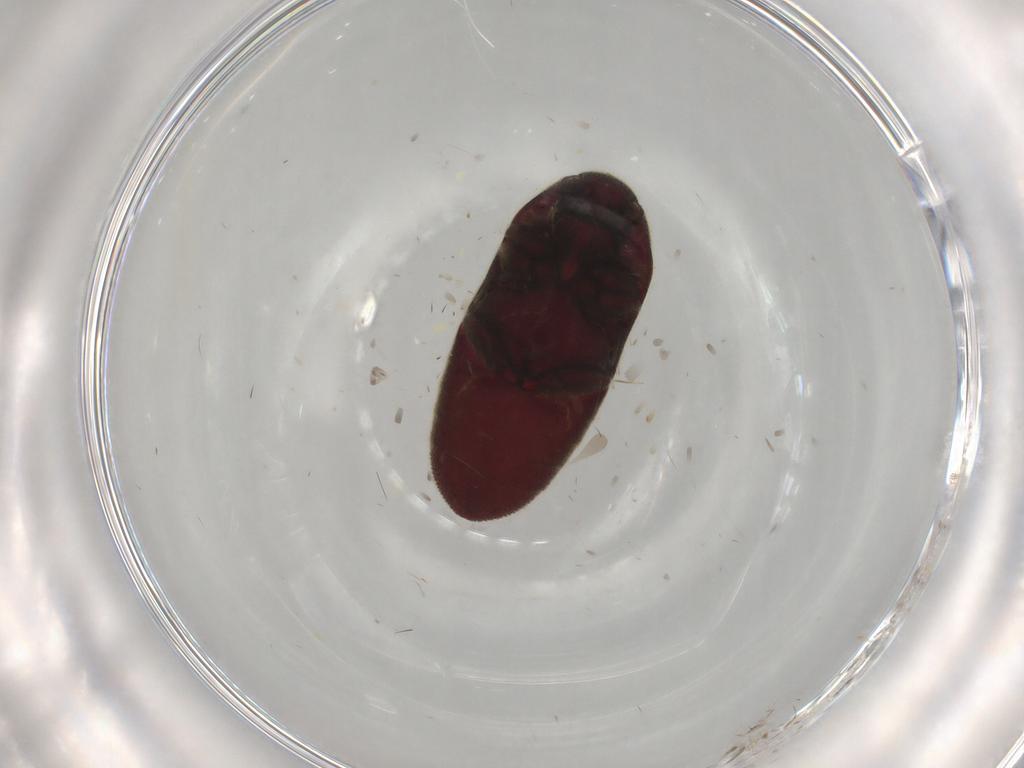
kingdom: Animalia
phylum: Arthropoda
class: Insecta
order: Coleoptera
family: Throscidae
